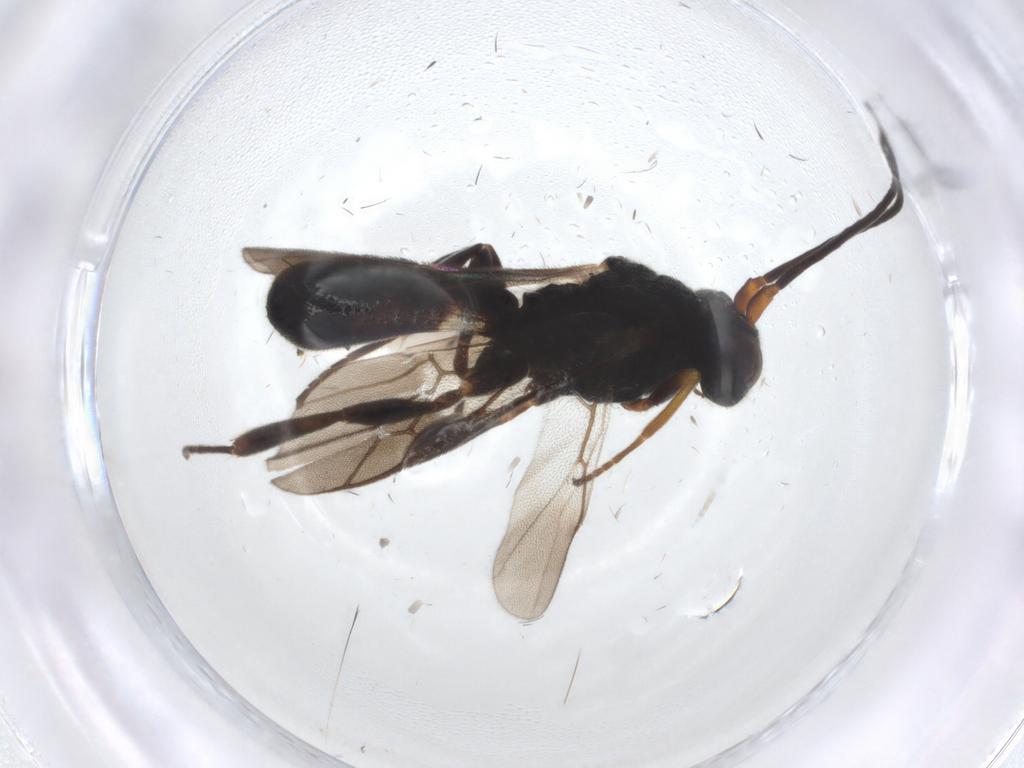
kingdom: Animalia
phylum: Arthropoda
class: Insecta
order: Hymenoptera
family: Braconidae
